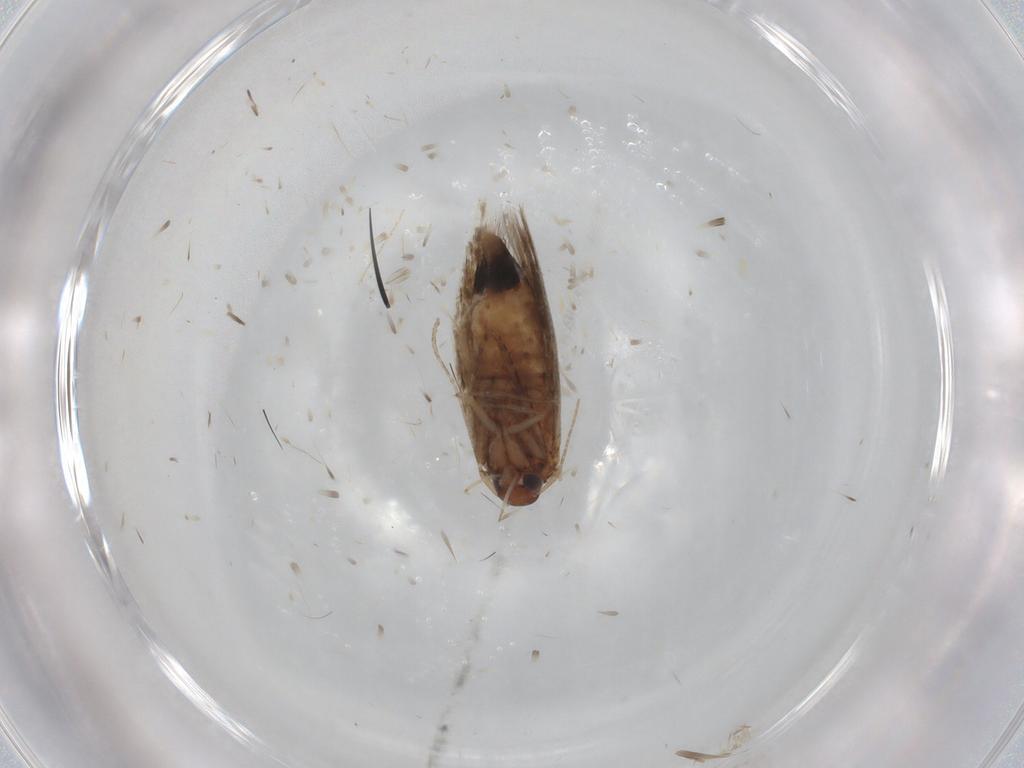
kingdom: Animalia
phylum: Arthropoda
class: Insecta
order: Lepidoptera
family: Cosmopterigidae
